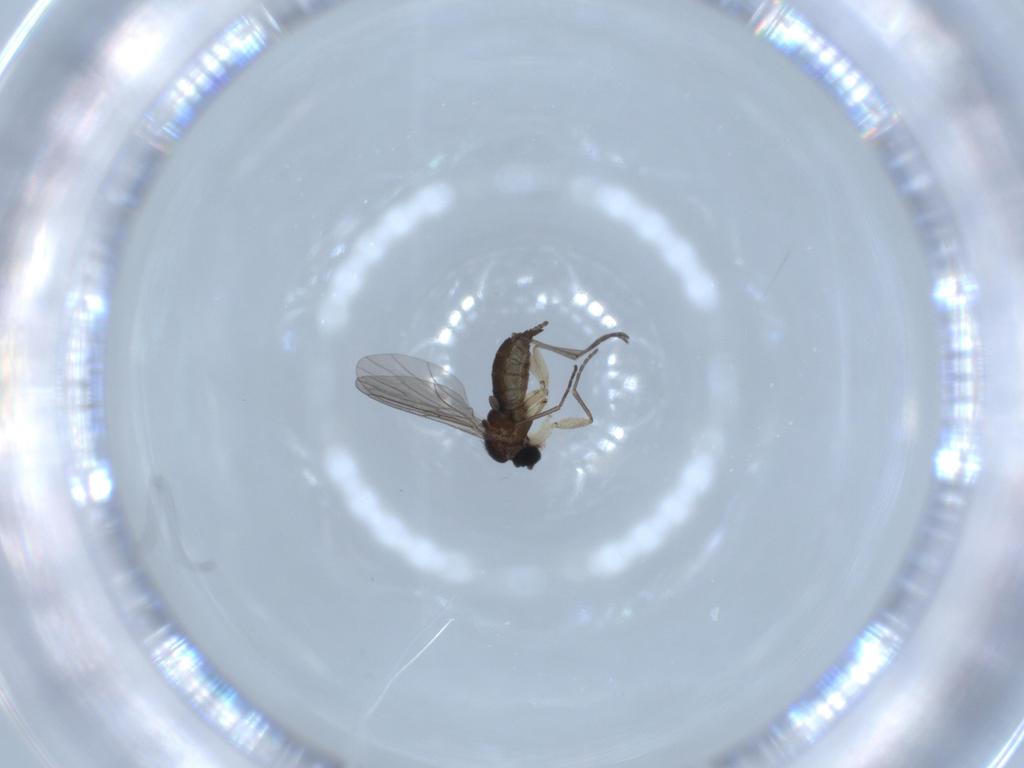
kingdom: Animalia
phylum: Arthropoda
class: Insecta
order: Diptera
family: Sciaridae
